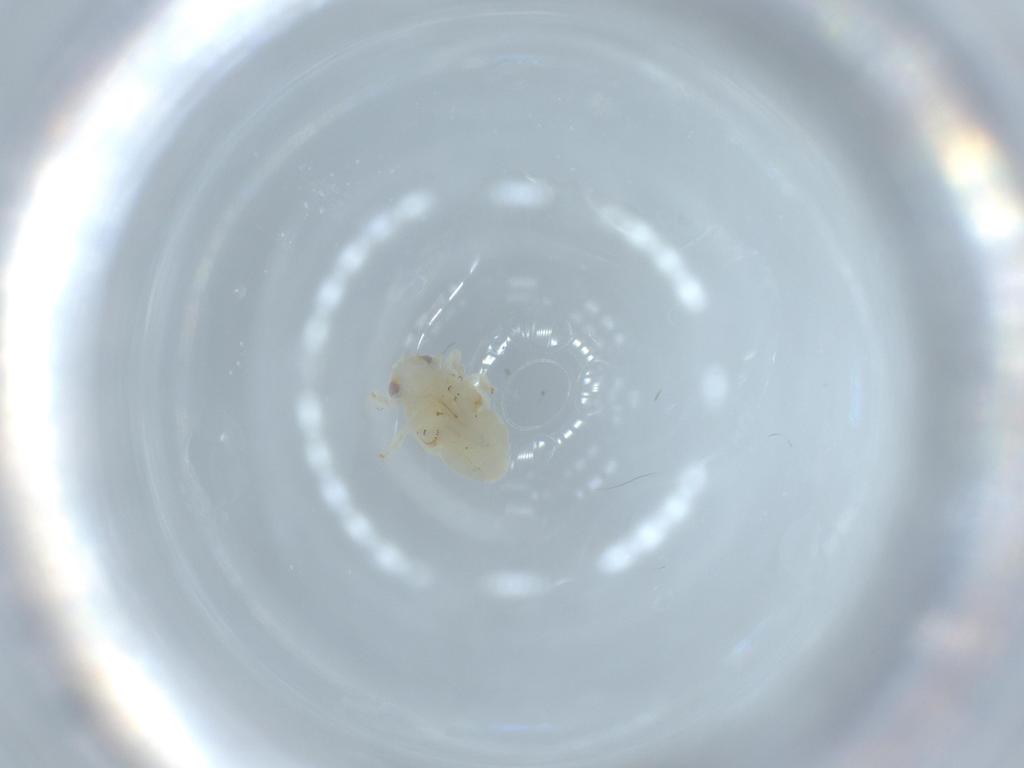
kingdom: Animalia
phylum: Arthropoda
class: Insecta
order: Hemiptera
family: Nogodinidae
